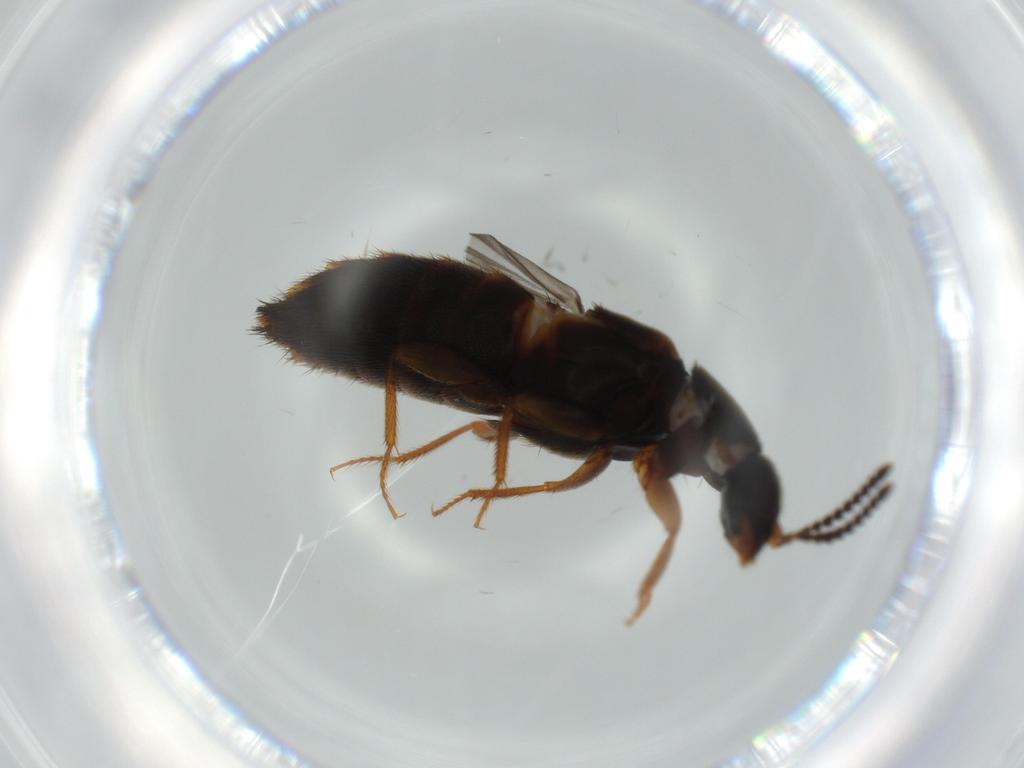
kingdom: Animalia
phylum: Arthropoda
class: Insecta
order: Coleoptera
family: Staphylinidae
